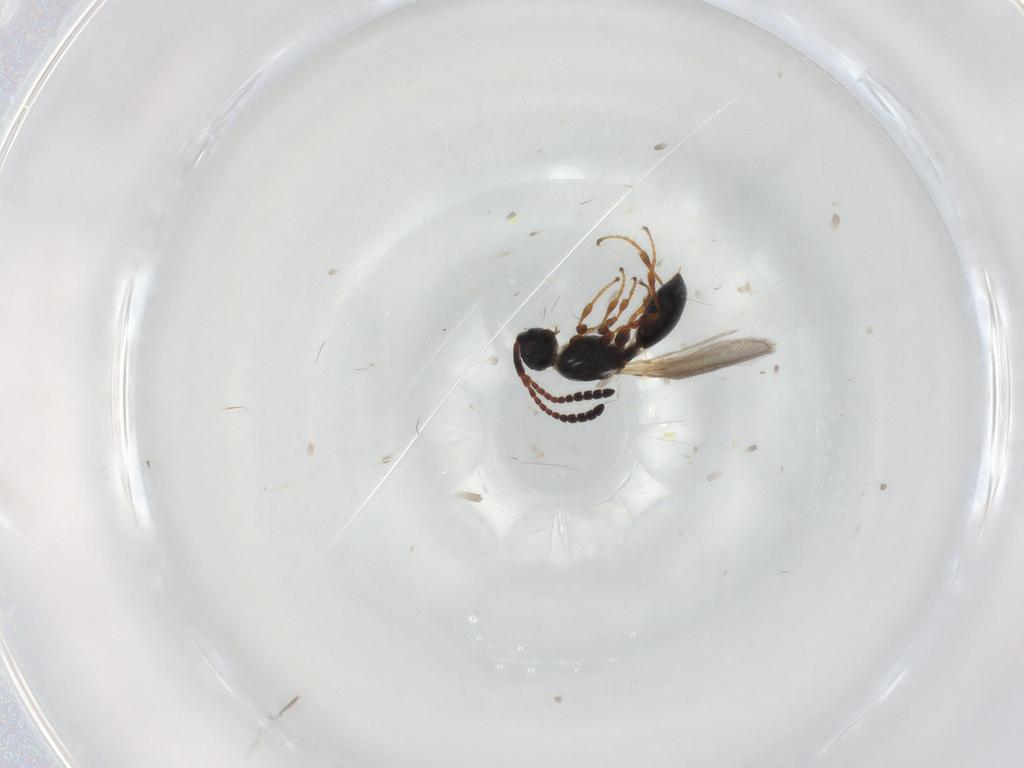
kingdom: Animalia
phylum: Arthropoda
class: Insecta
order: Hymenoptera
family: Diapriidae
